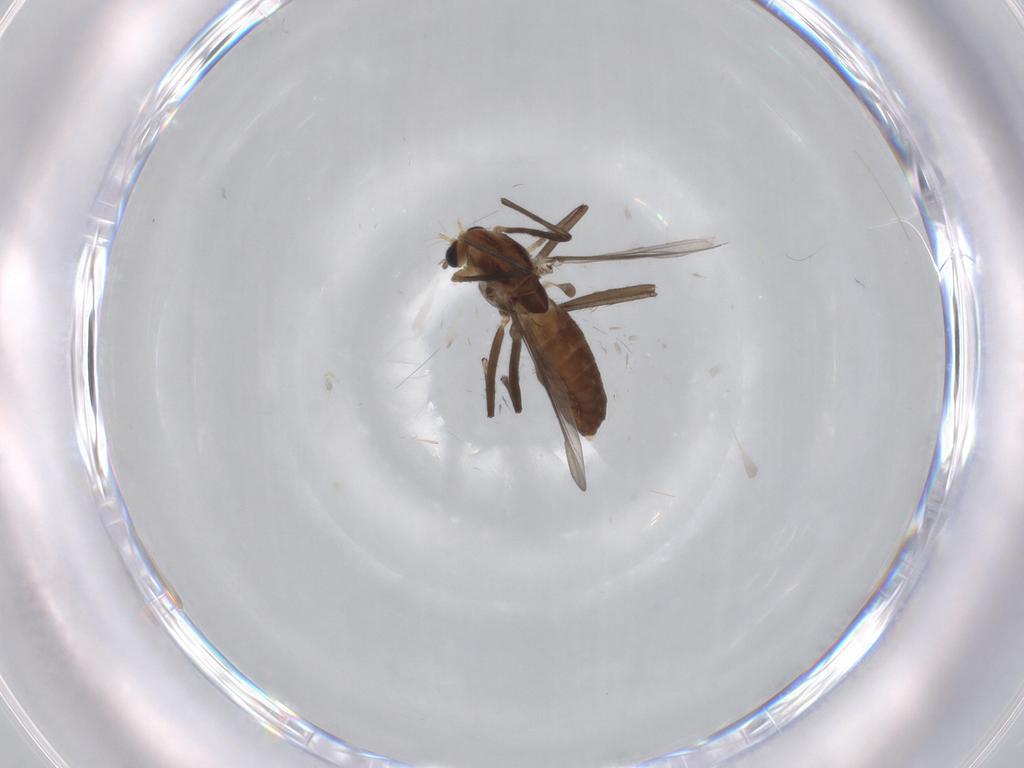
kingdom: Animalia
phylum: Arthropoda
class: Insecta
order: Diptera
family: Chironomidae
